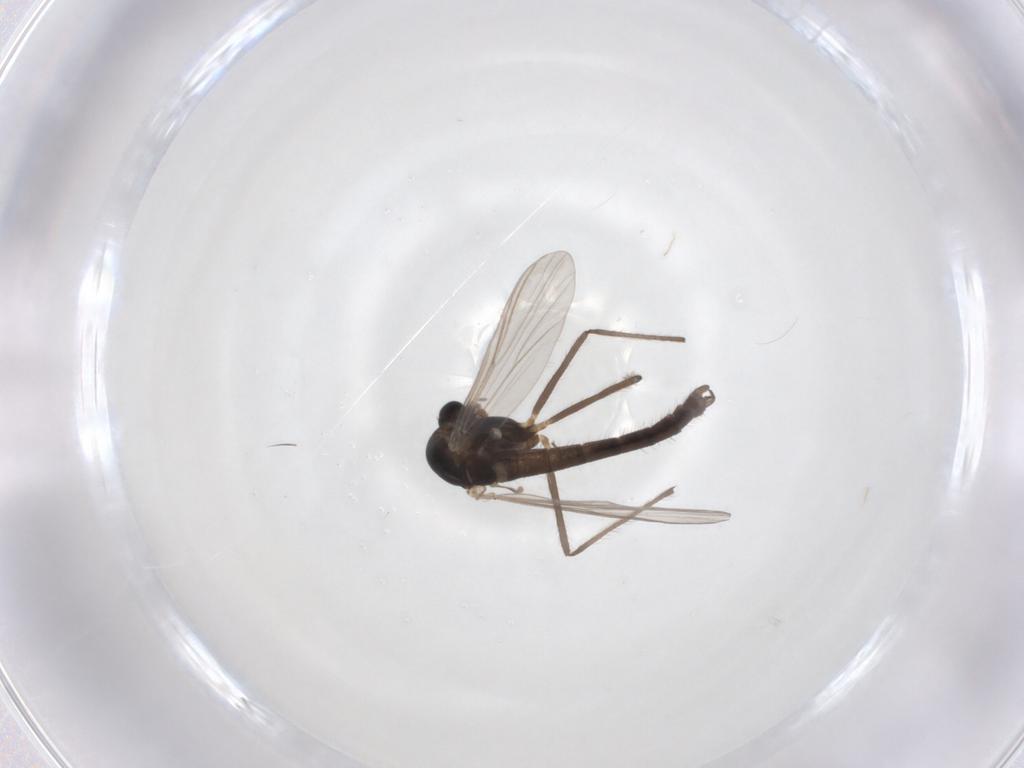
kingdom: Animalia
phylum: Arthropoda
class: Insecta
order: Diptera
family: Chironomidae
